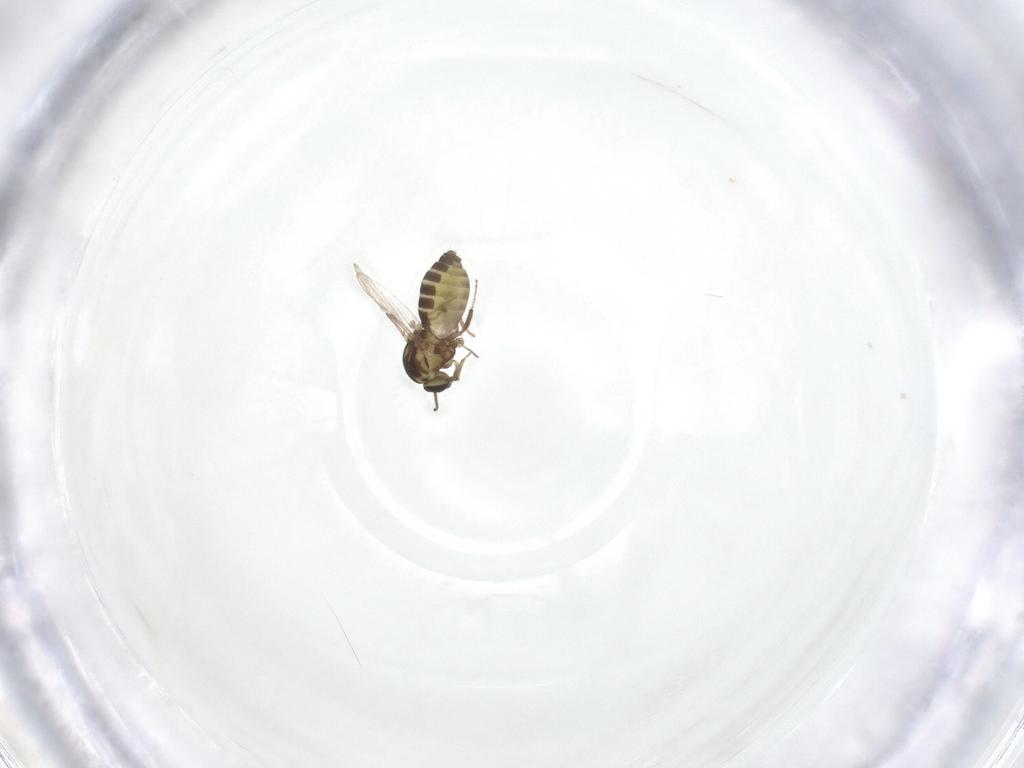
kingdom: Animalia
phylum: Arthropoda
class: Insecta
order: Diptera
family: Ceratopogonidae
